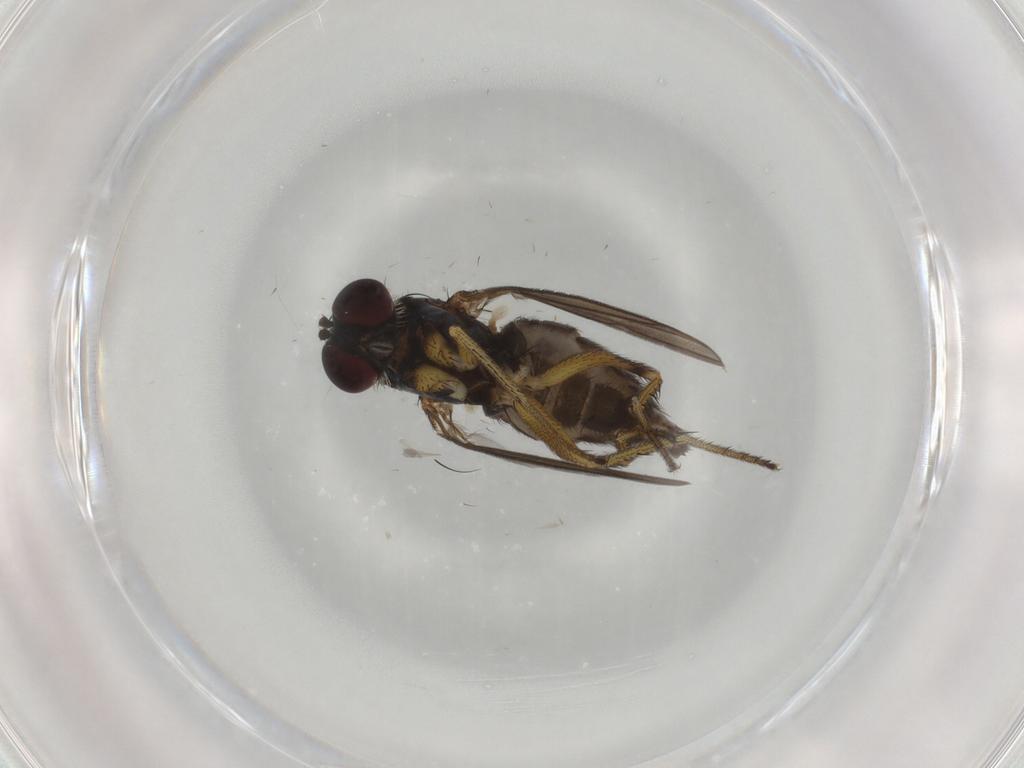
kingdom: Animalia
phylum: Arthropoda
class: Insecta
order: Diptera
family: Dolichopodidae
